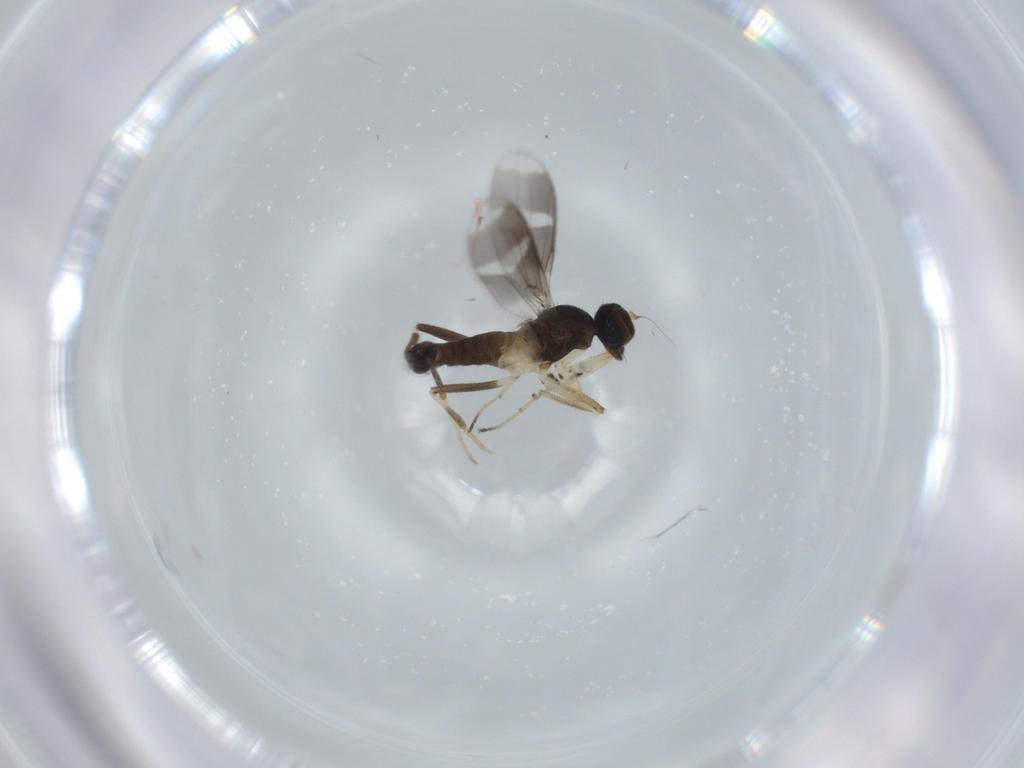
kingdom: Animalia
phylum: Arthropoda
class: Insecta
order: Diptera
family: Hybotidae
